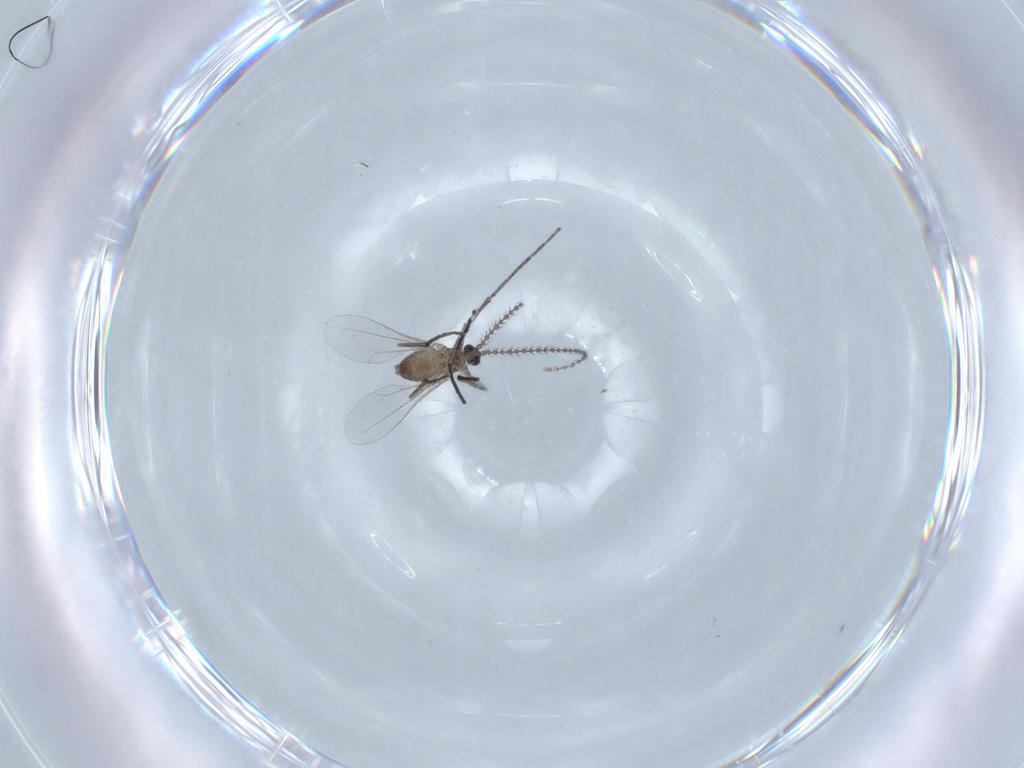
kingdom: Animalia
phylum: Arthropoda
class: Insecta
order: Diptera
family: Cecidomyiidae
